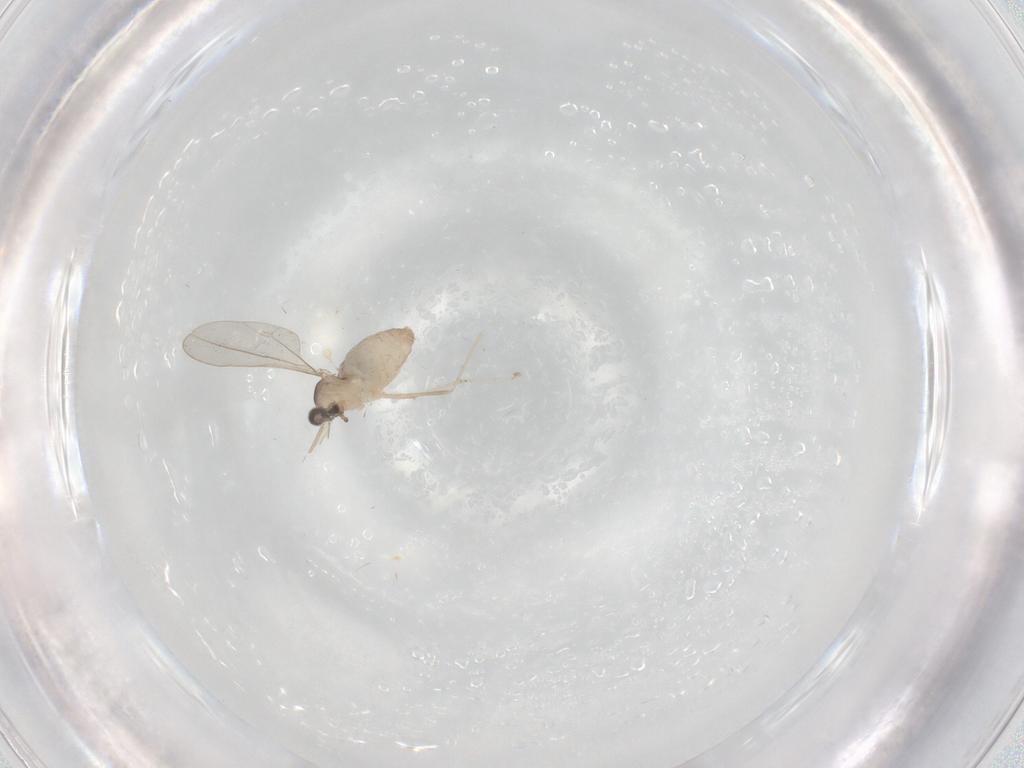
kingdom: Animalia
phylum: Arthropoda
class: Insecta
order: Diptera
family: Cecidomyiidae
